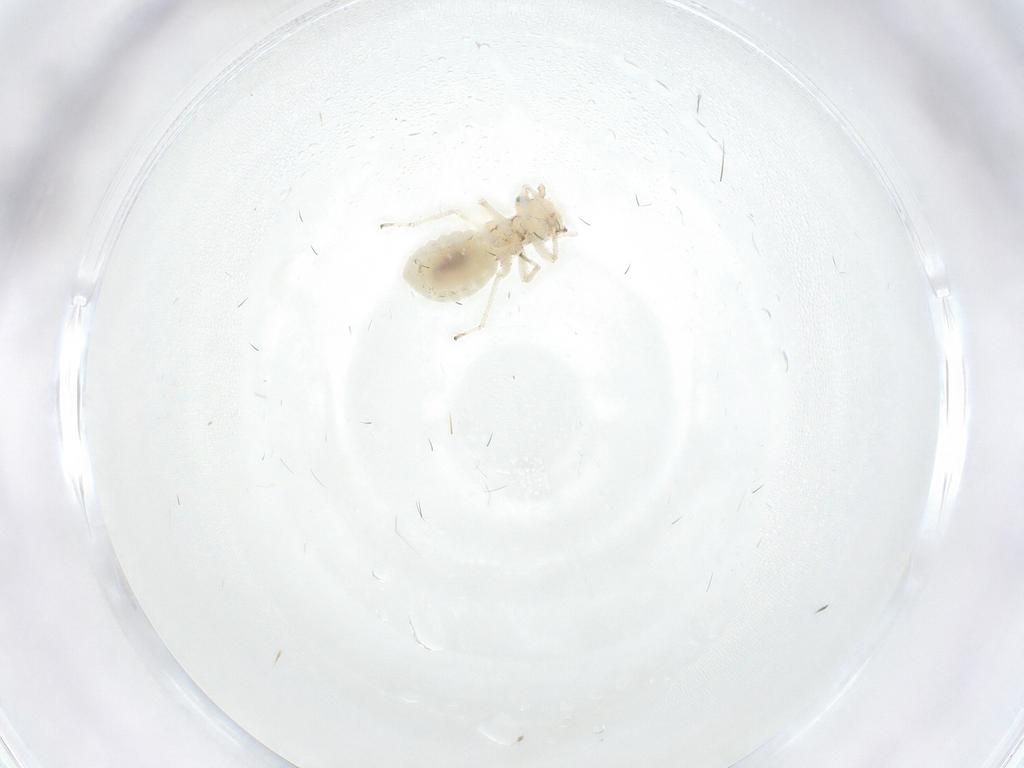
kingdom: Animalia
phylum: Arthropoda
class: Insecta
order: Psocodea
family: Elipsocidae
